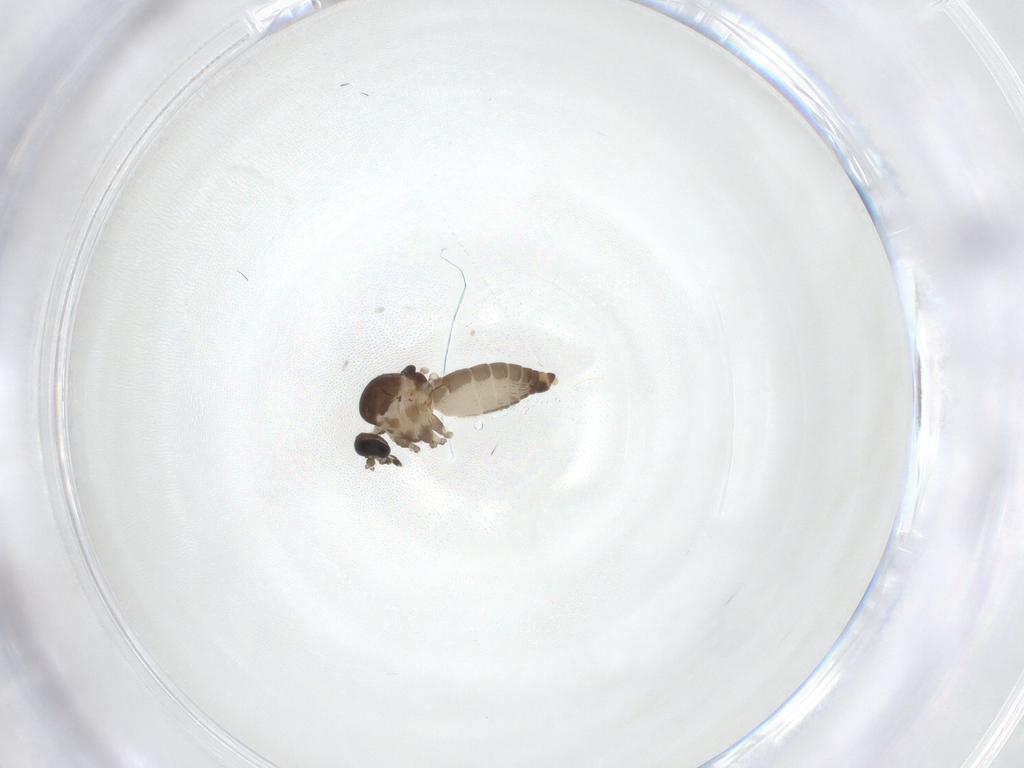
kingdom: Animalia
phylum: Arthropoda
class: Insecta
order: Diptera
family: Ceratopogonidae
